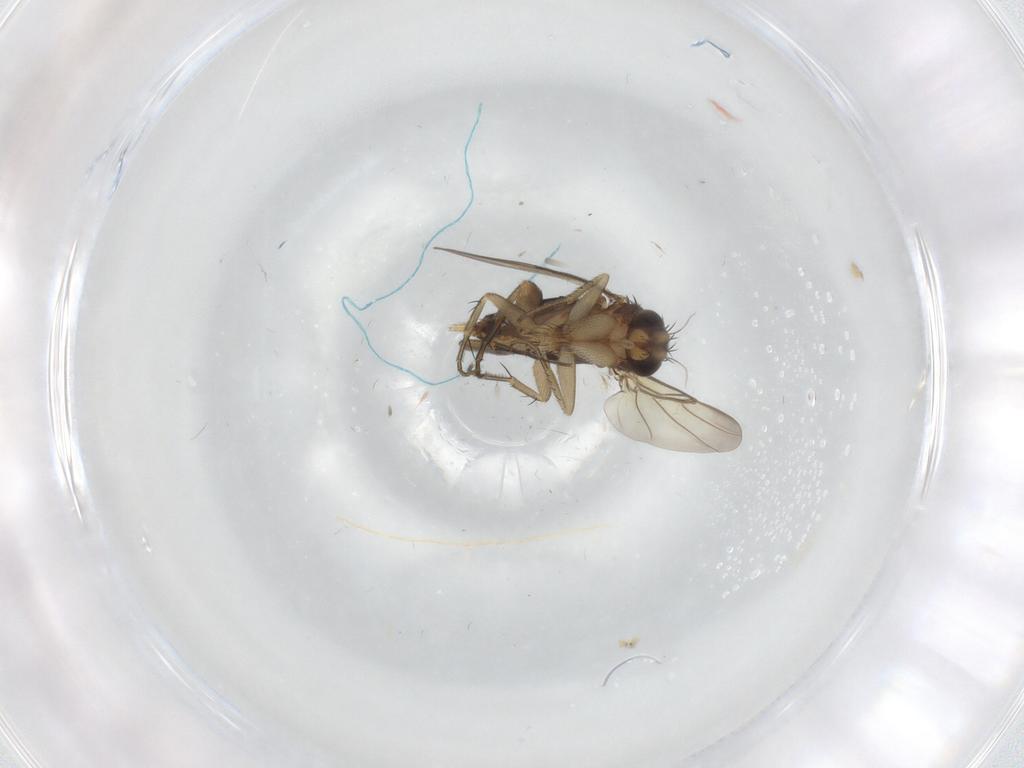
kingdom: Animalia
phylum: Arthropoda
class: Insecta
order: Diptera
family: Phoridae
